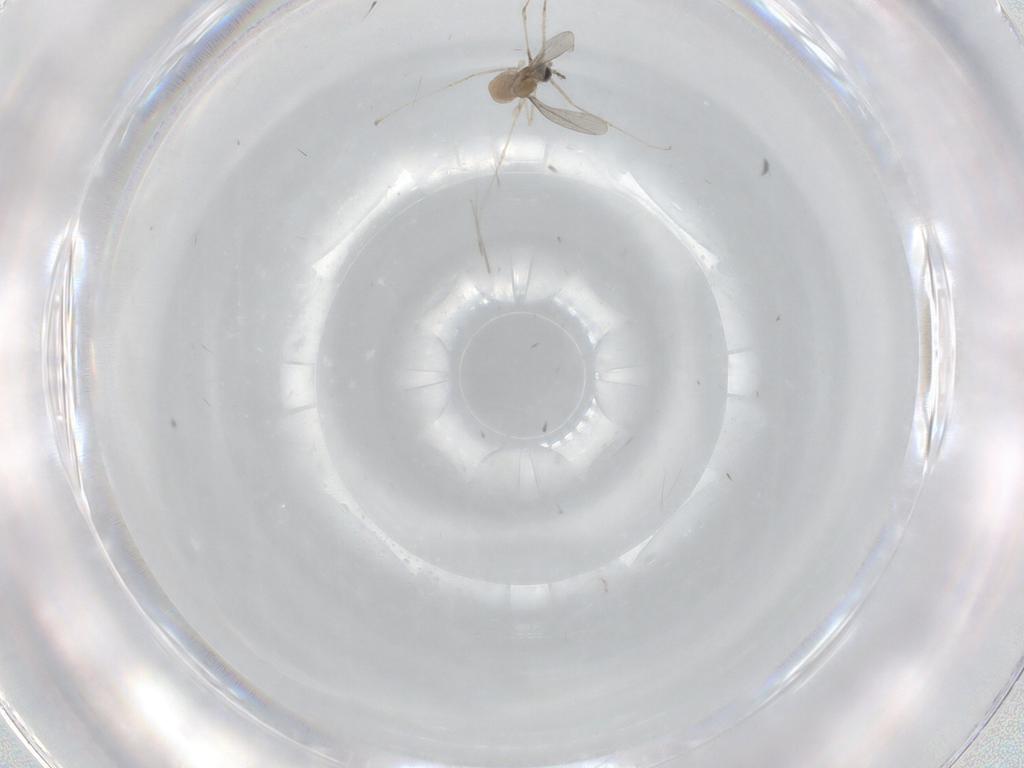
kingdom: Animalia
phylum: Arthropoda
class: Insecta
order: Diptera
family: Cecidomyiidae
